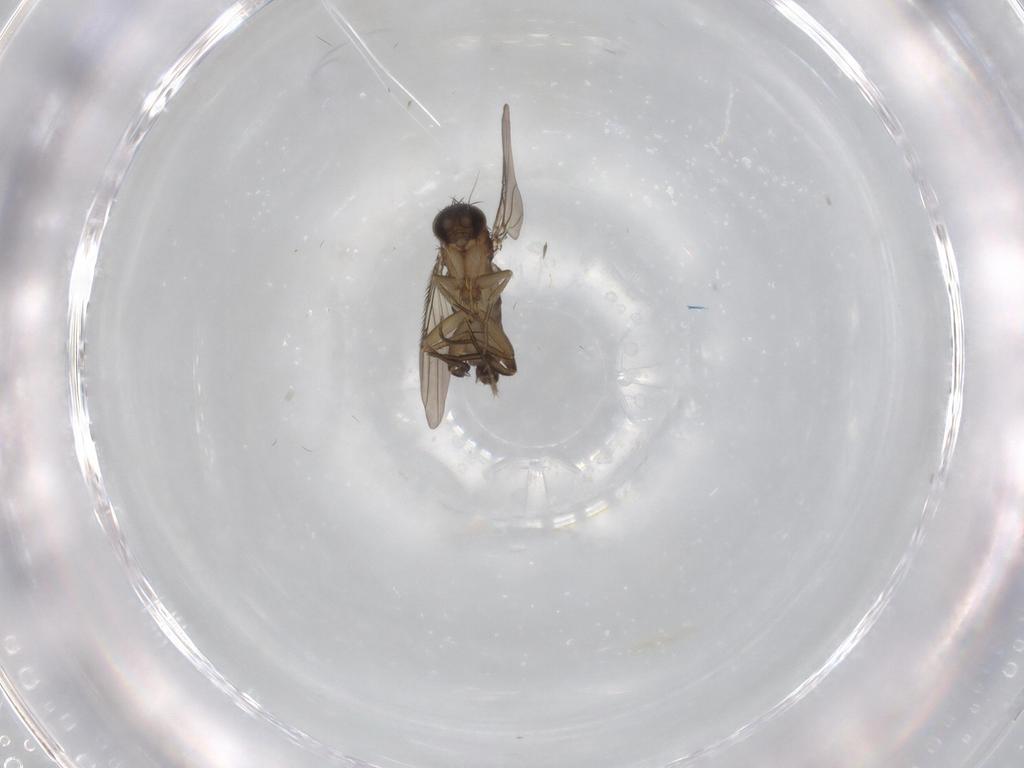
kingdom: Animalia
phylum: Arthropoda
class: Insecta
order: Diptera
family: Phoridae
